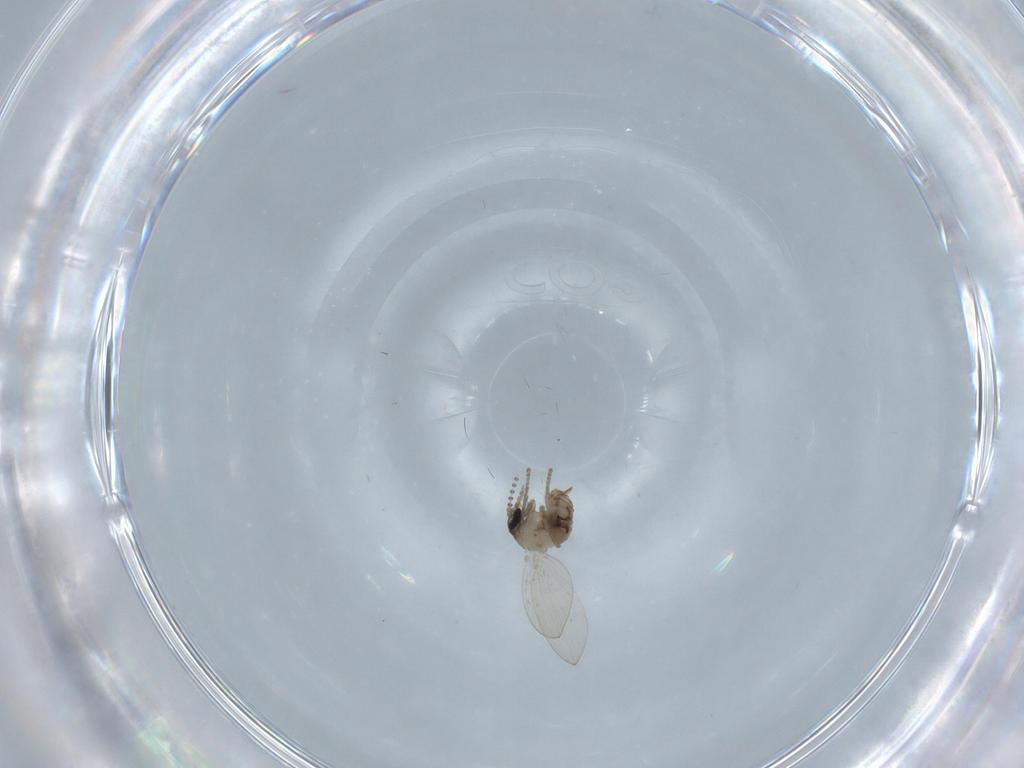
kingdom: Animalia
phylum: Arthropoda
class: Insecta
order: Diptera
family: Psychodidae
